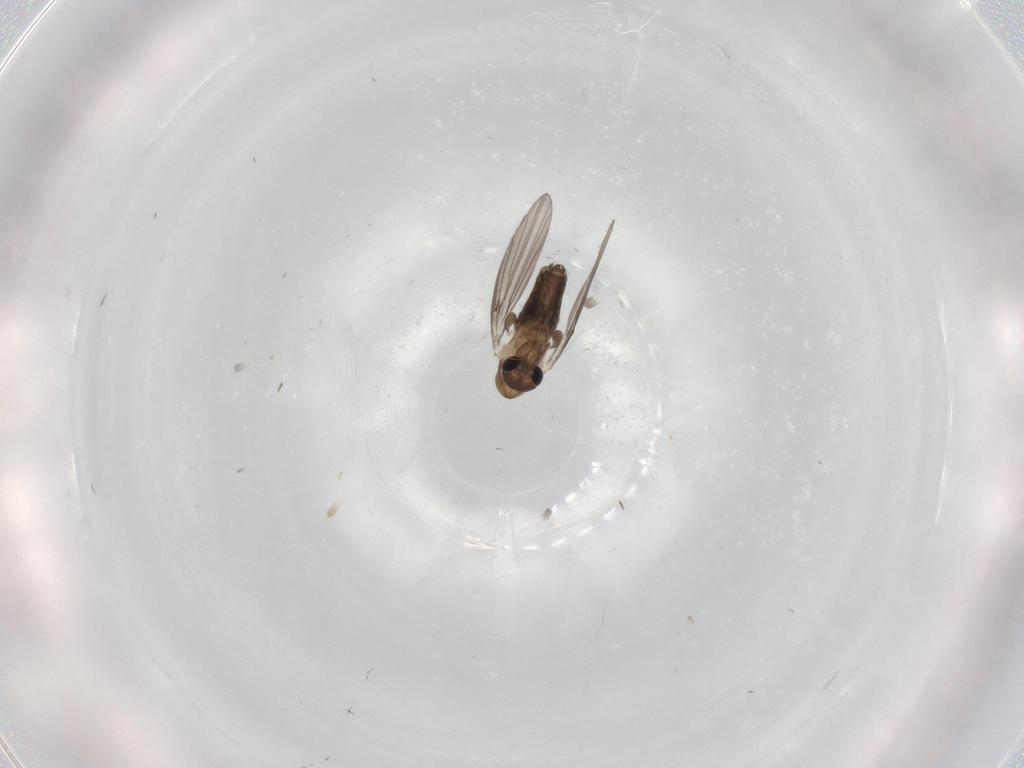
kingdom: Animalia
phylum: Arthropoda
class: Insecta
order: Diptera
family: Psychodidae
